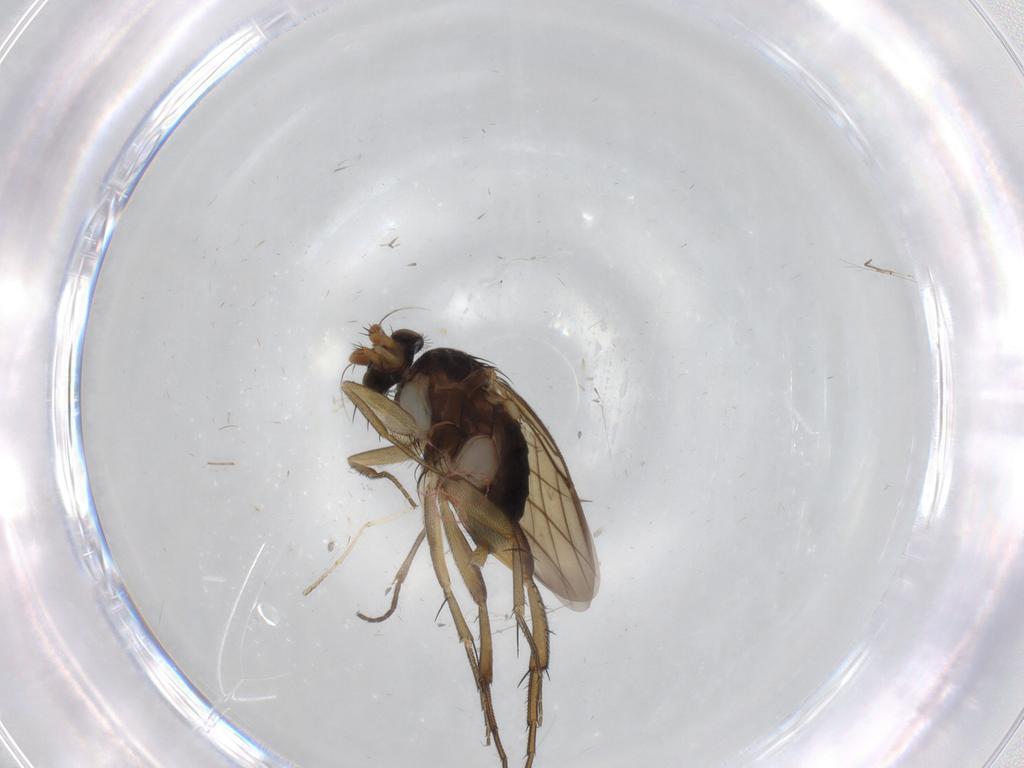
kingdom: Animalia
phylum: Arthropoda
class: Insecta
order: Diptera
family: Phoridae
